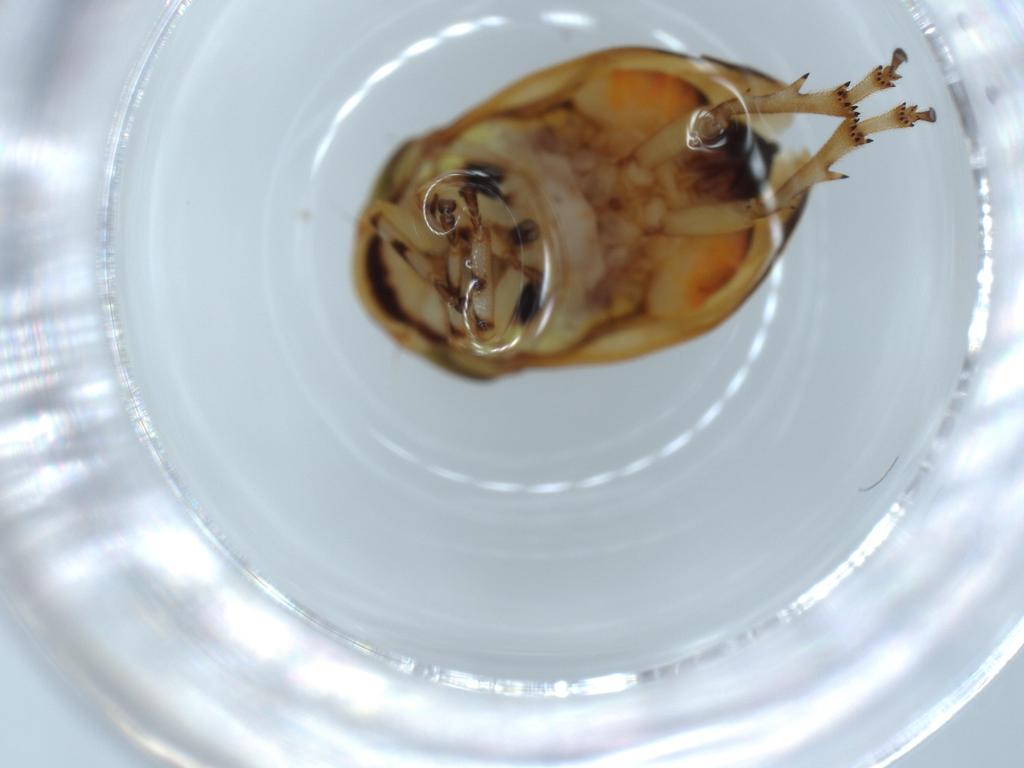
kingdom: Animalia
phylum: Arthropoda
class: Insecta
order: Hemiptera
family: Clastopteridae
